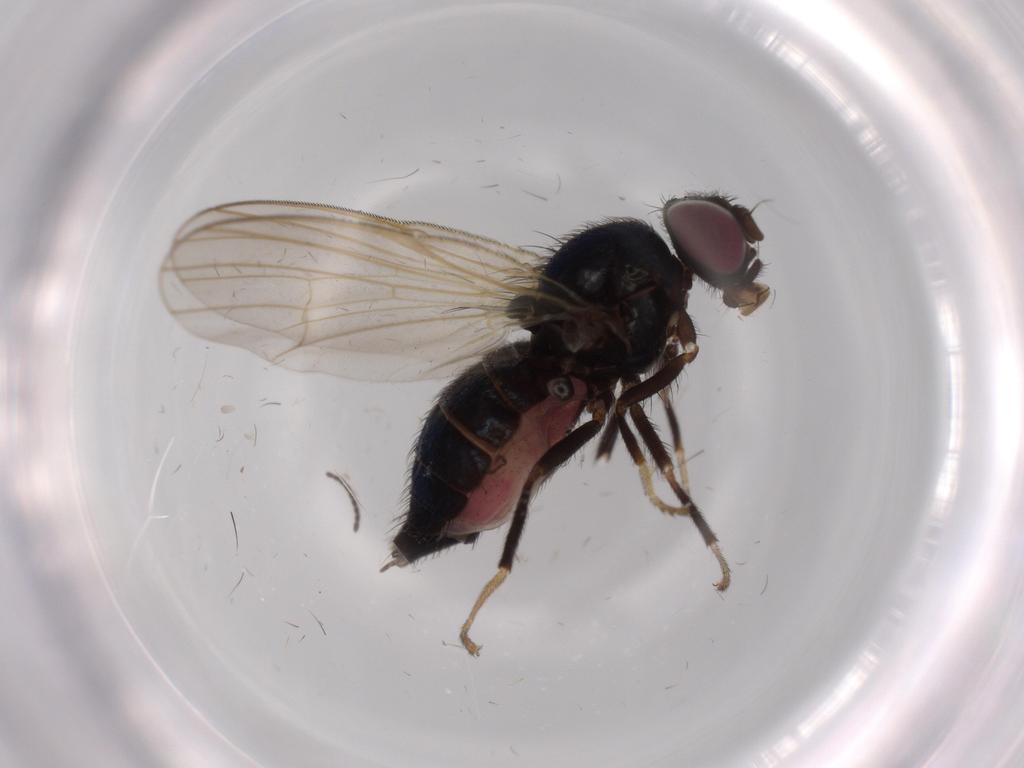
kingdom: Animalia
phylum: Arthropoda
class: Insecta
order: Diptera
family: Lonchaeidae
